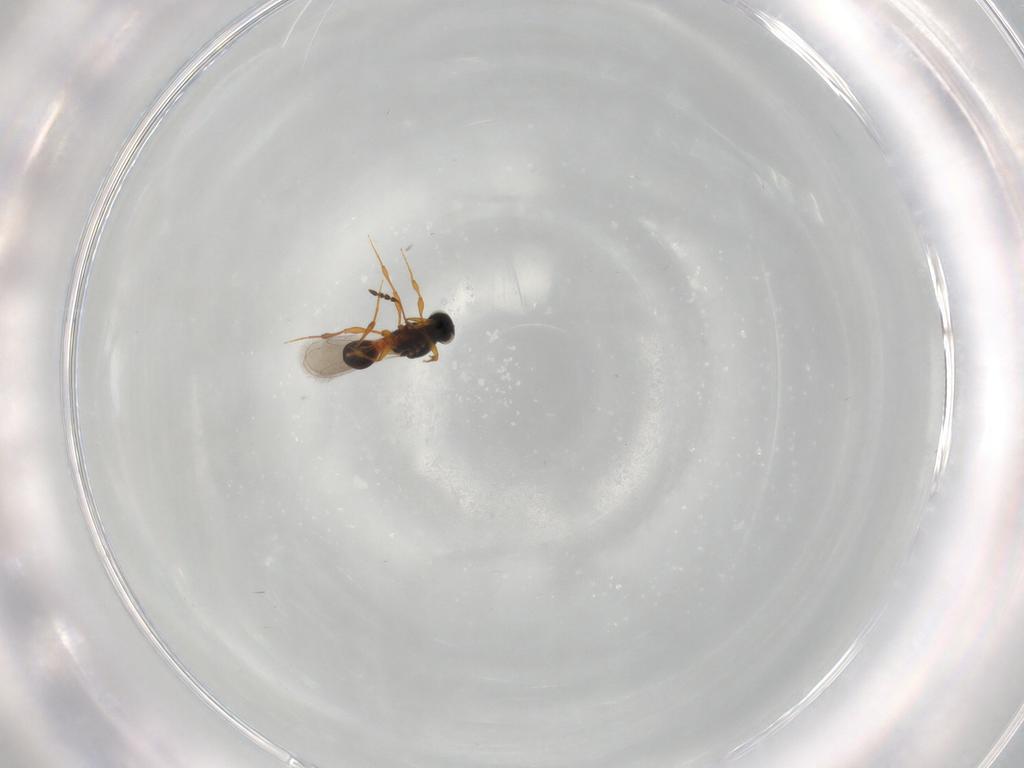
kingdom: Animalia
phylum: Arthropoda
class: Insecta
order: Hymenoptera
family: Platygastridae
